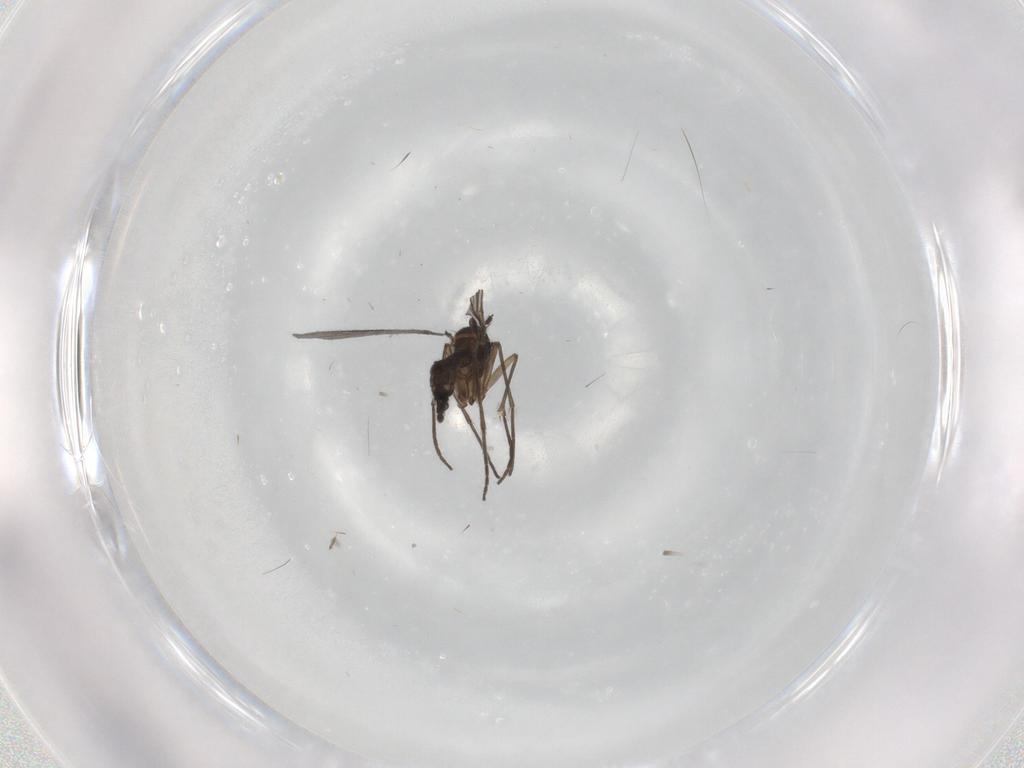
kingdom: Animalia
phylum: Arthropoda
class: Insecta
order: Diptera
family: Sciaridae
